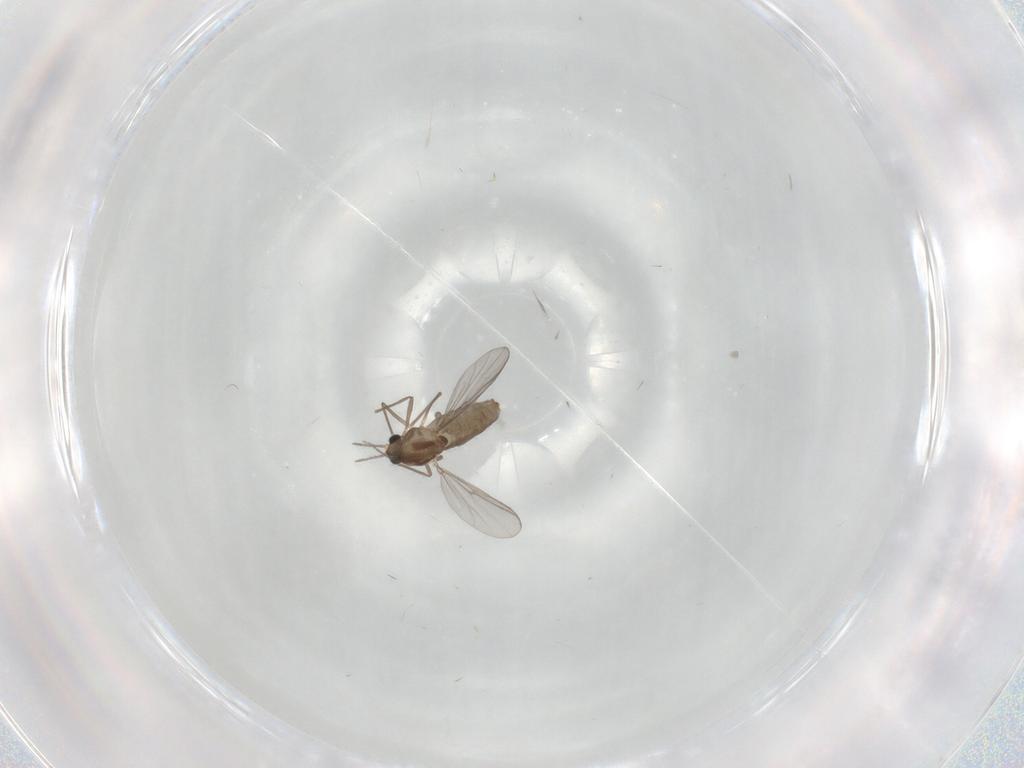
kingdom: Animalia
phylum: Arthropoda
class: Insecta
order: Diptera
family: Chironomidae
